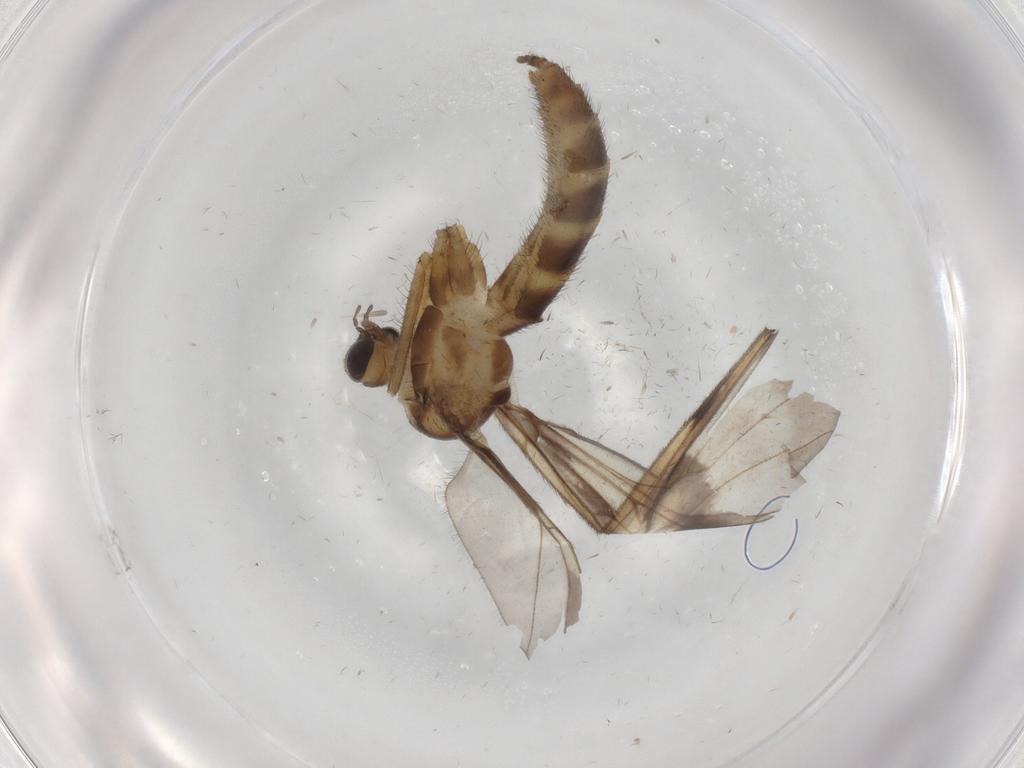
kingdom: Animalia
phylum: Arthropoda
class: Insecta
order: Diptera
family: Keroplatidae
